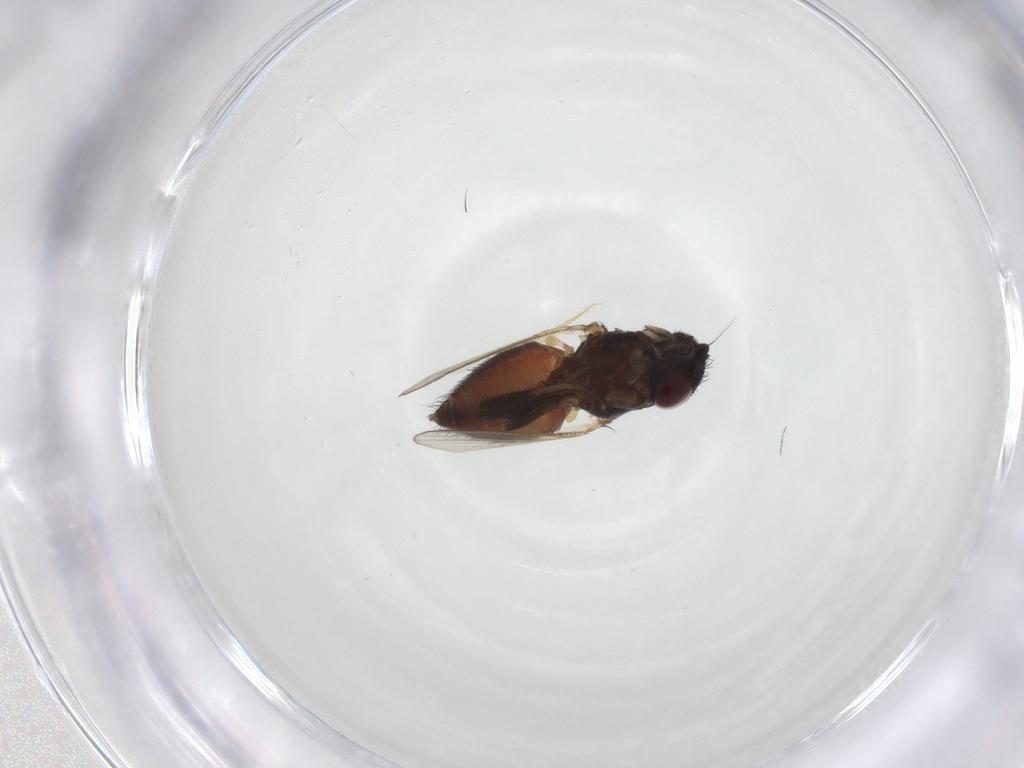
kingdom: Animalia
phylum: Arthropoda
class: Insecta
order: Diptera
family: Milichiidae
